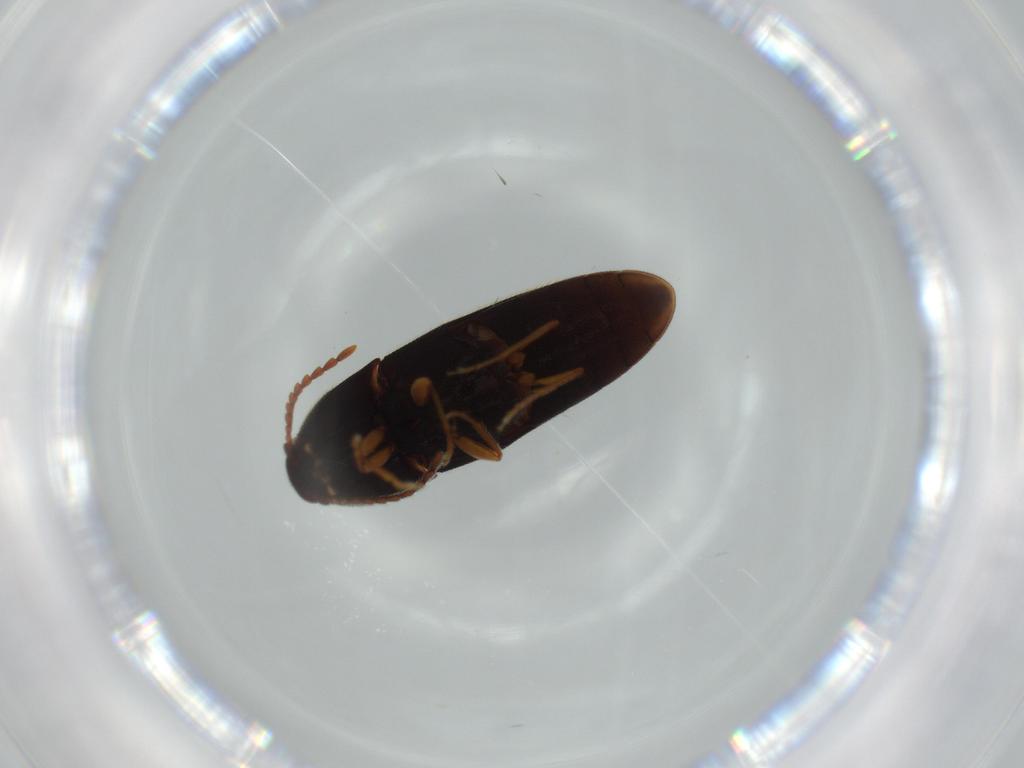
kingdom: Animalia
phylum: Arthropoda
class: Insecta
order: Coleoptera
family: Elateridae
